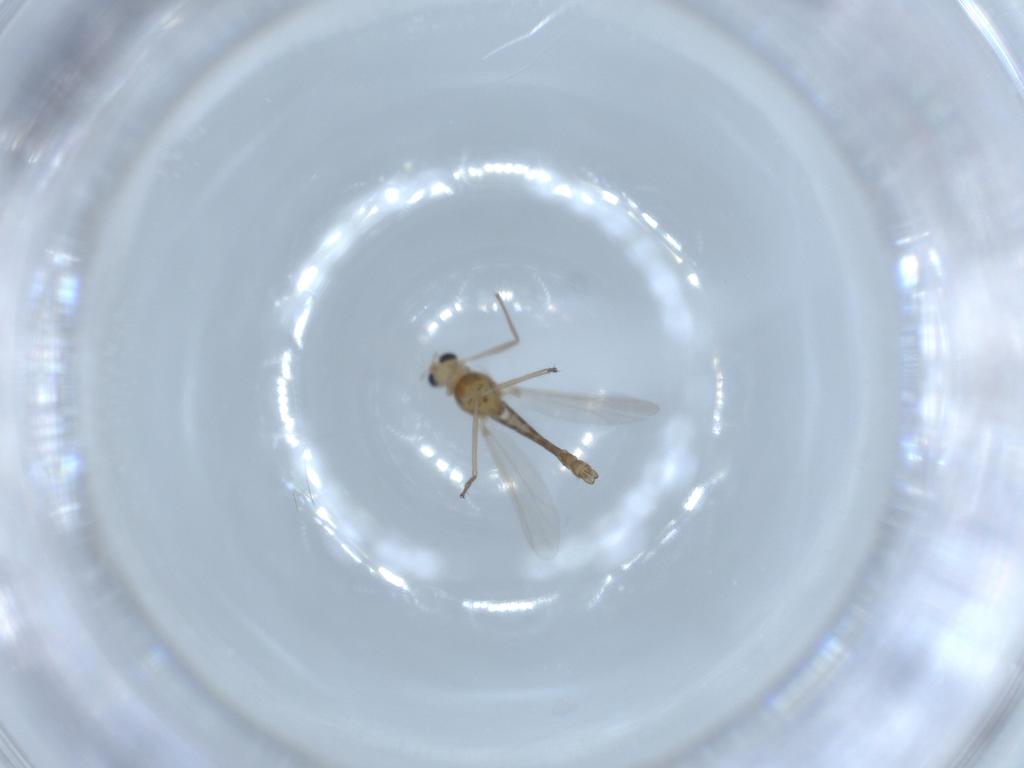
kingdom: Animalia
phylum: Arthropoda
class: Insecta
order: Diptera
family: Chironomidae
